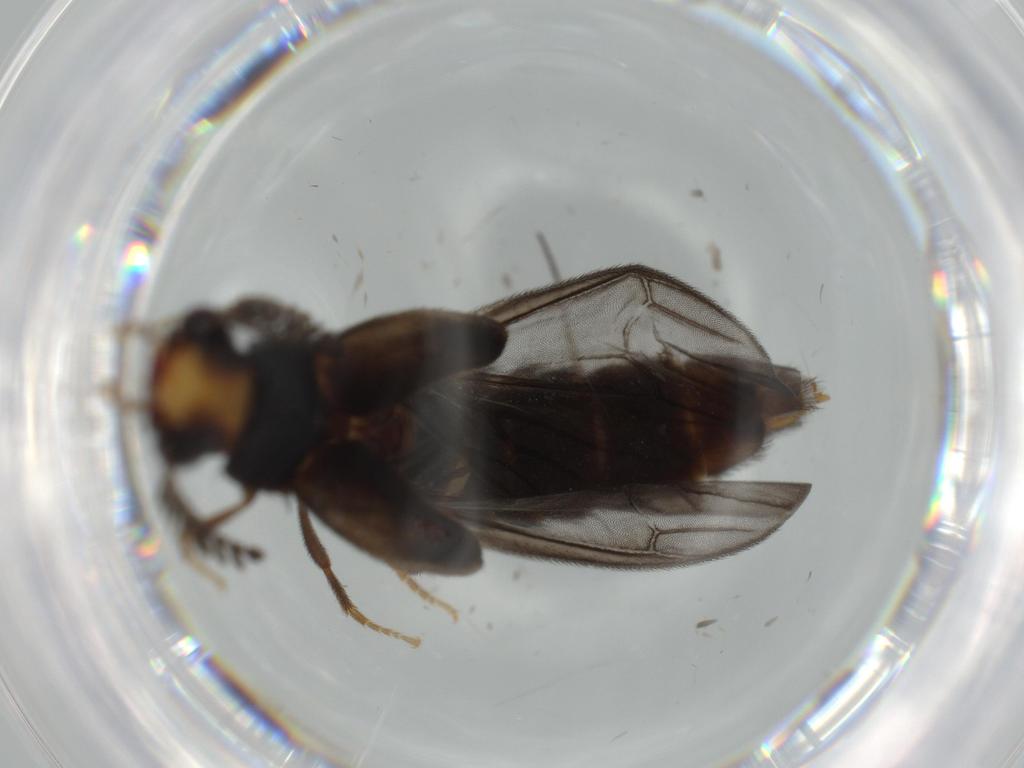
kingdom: Animalia
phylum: Arthropoda
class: Insecta
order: Coleoptera
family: Phengodidae
